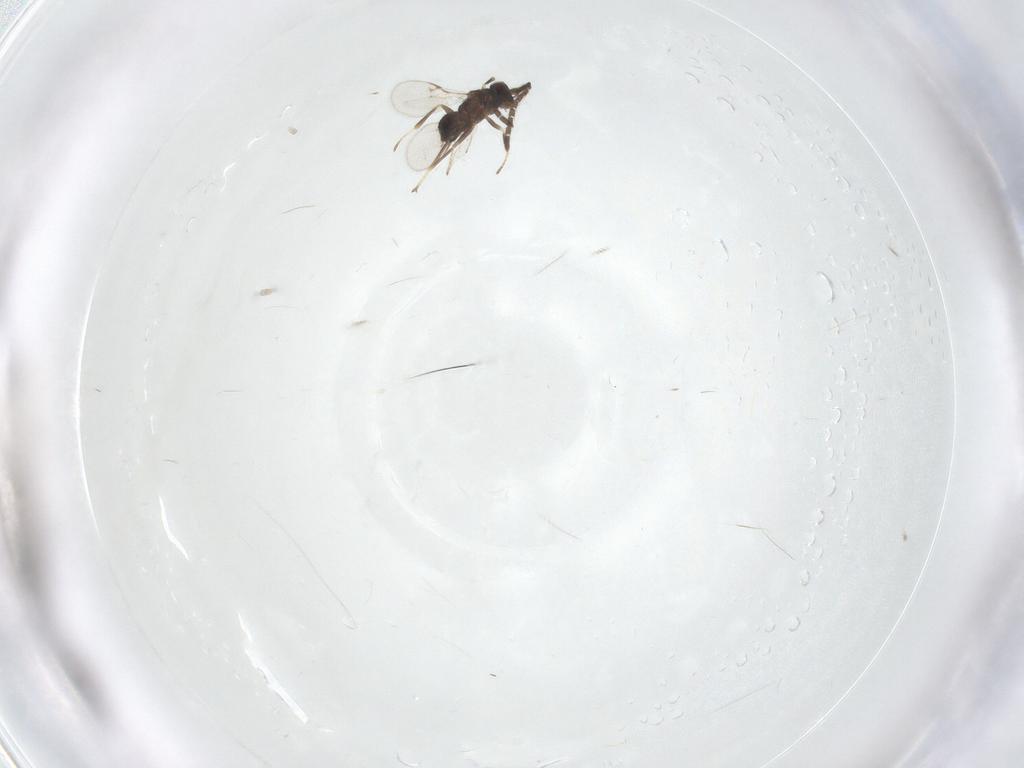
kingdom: Animalia
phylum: Arthropoda
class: Insecta
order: Hymenoptera
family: Encyrtidae
